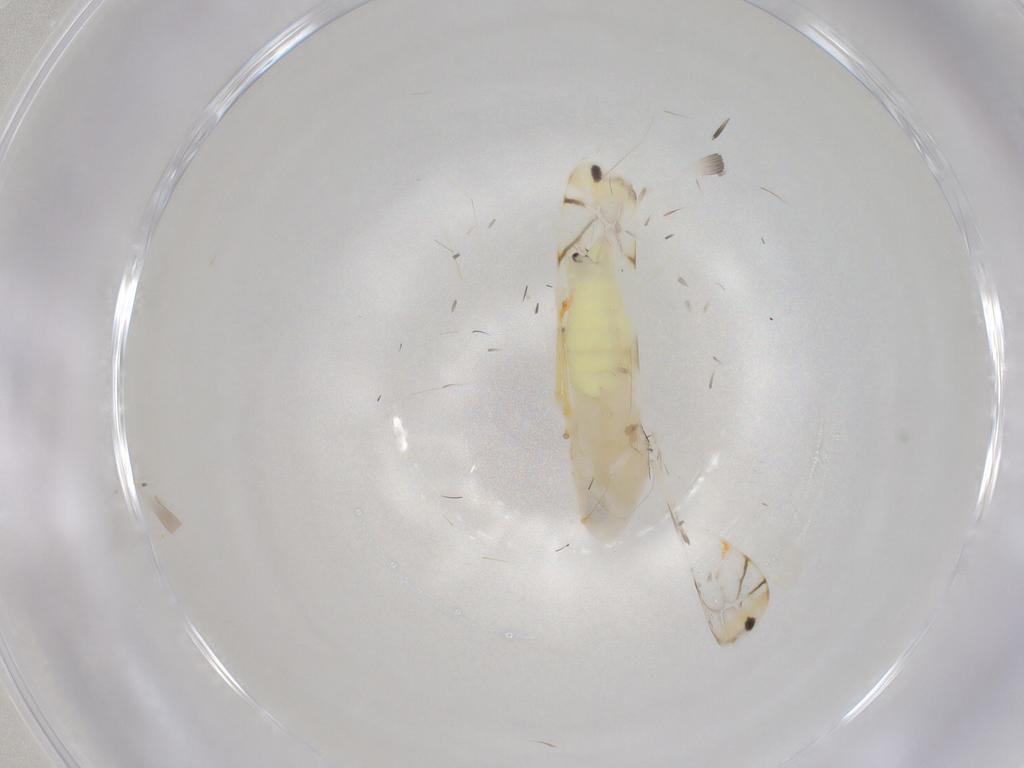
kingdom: Animalia
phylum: Arthropoda
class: Insecta
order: Hemiptera
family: Cicadellidae
